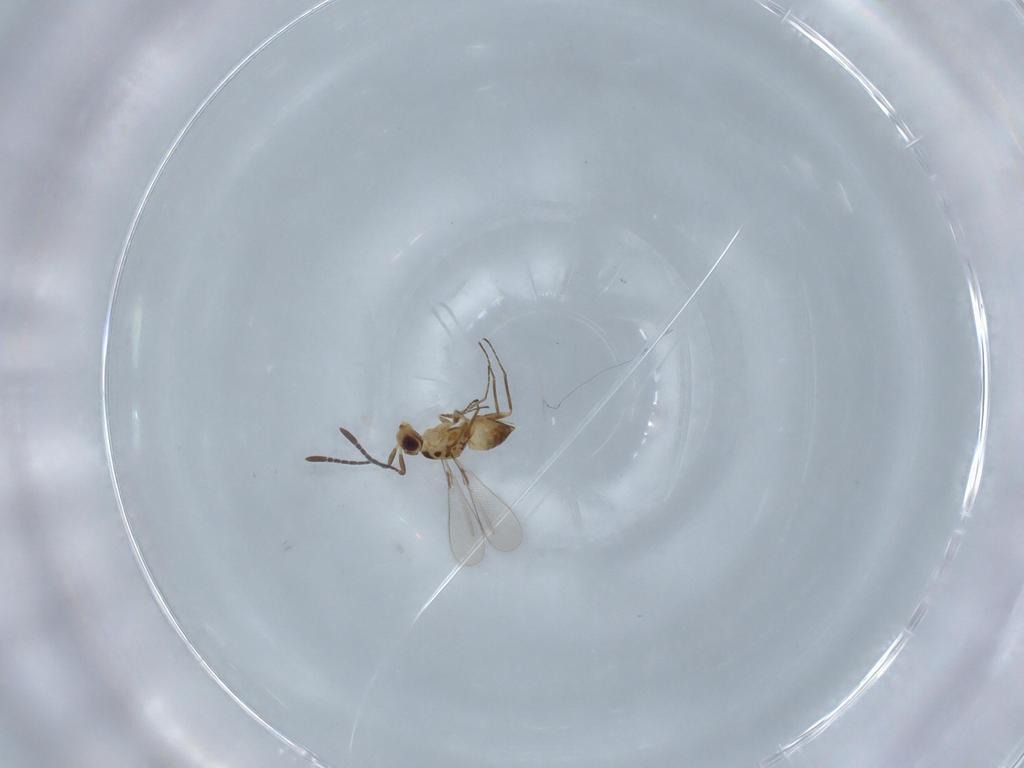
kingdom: Animalia
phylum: Arthropoda
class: Insecta
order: Hymenoptera
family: Mymaridae
